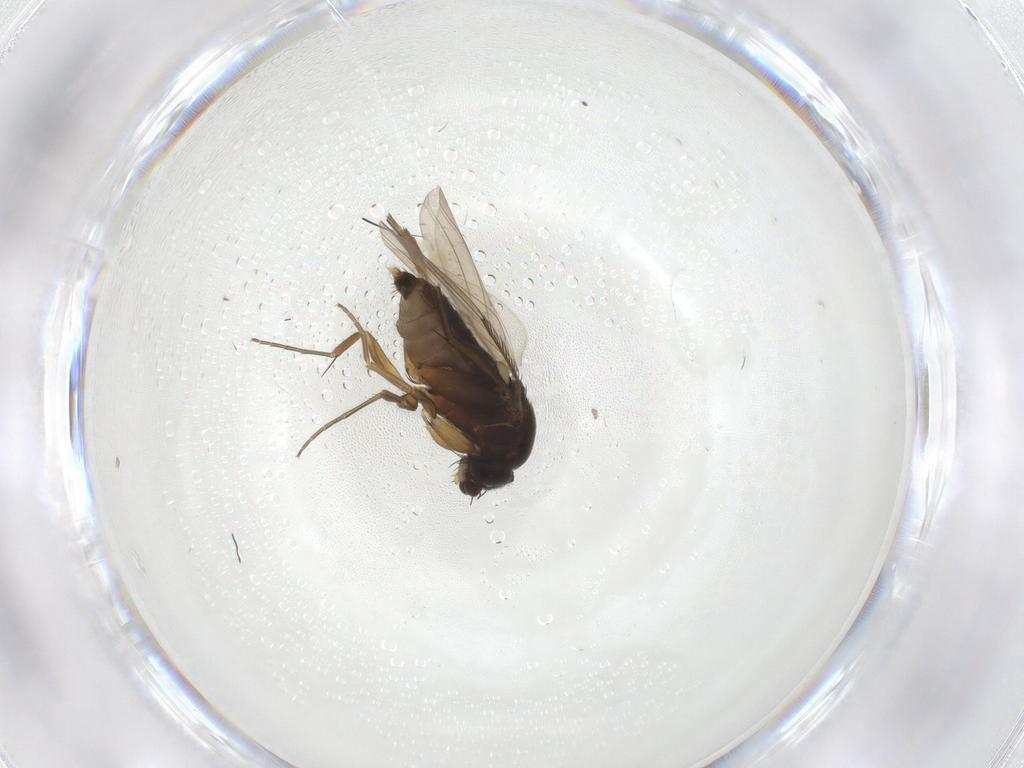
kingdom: Animalia
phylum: Arthropoda
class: Insecta
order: Diptera
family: Phoridae
